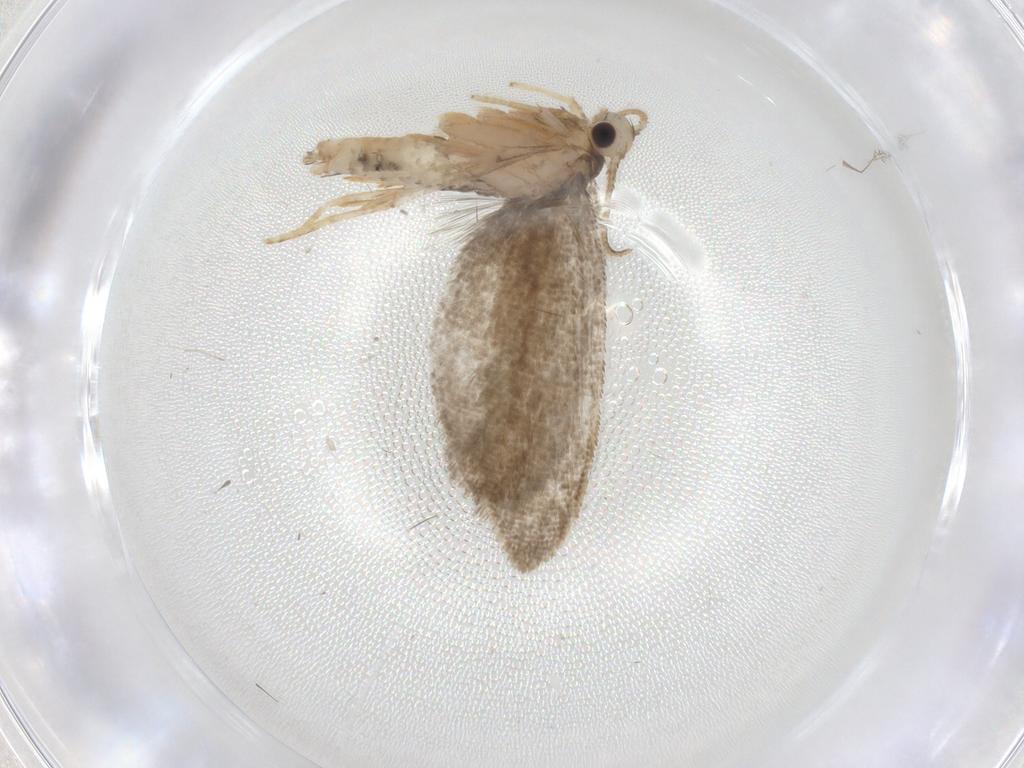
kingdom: Animalia
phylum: Arthropoda
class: Insecta
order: Lepidoptera
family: Psychidae
